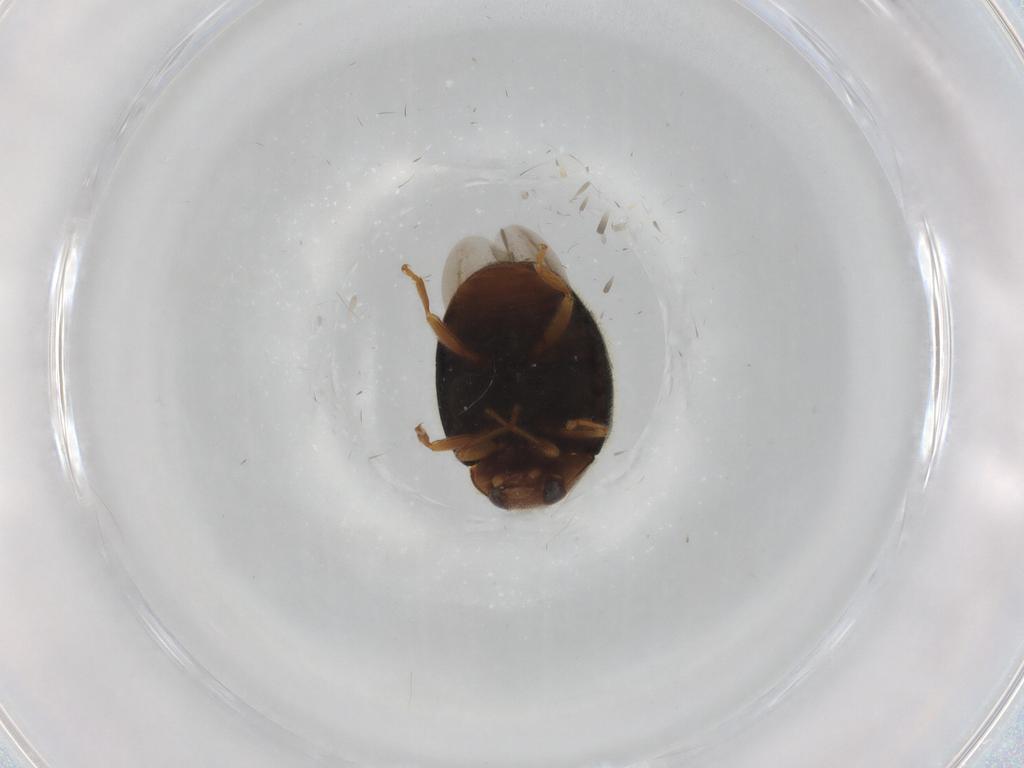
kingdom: Animalia
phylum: Arthropoda
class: Insecta
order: Coleoptera
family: Coccinellidae
